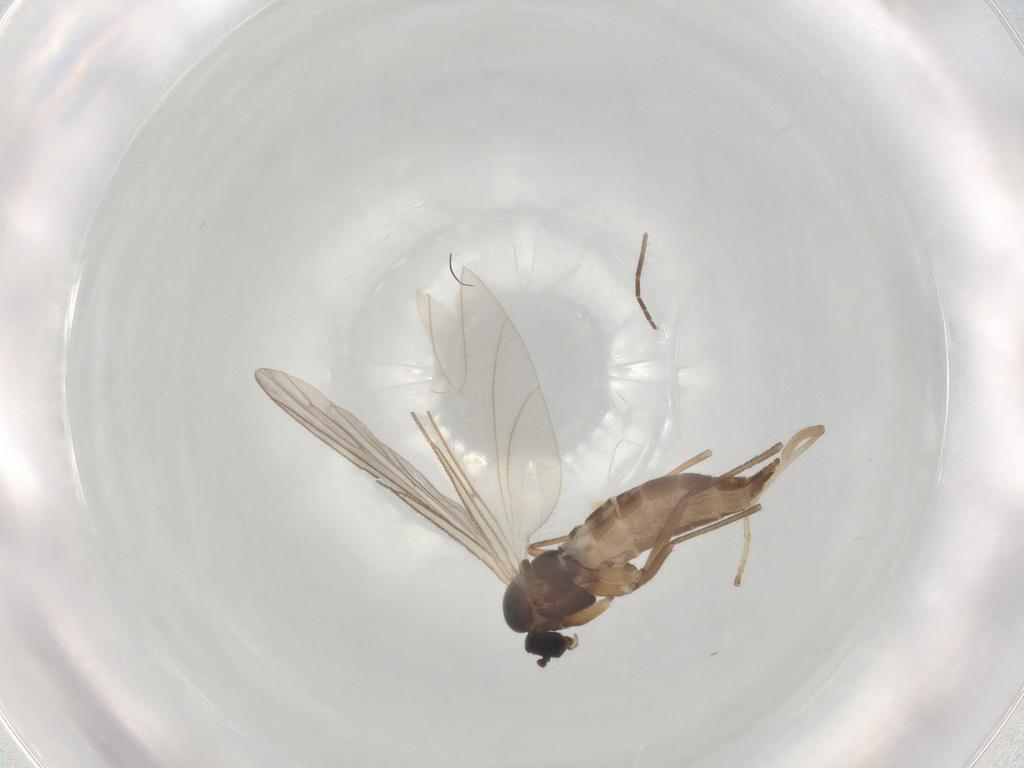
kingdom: Animalia
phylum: Arthropoda
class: Insecta
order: Diptera
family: Sciaridae
